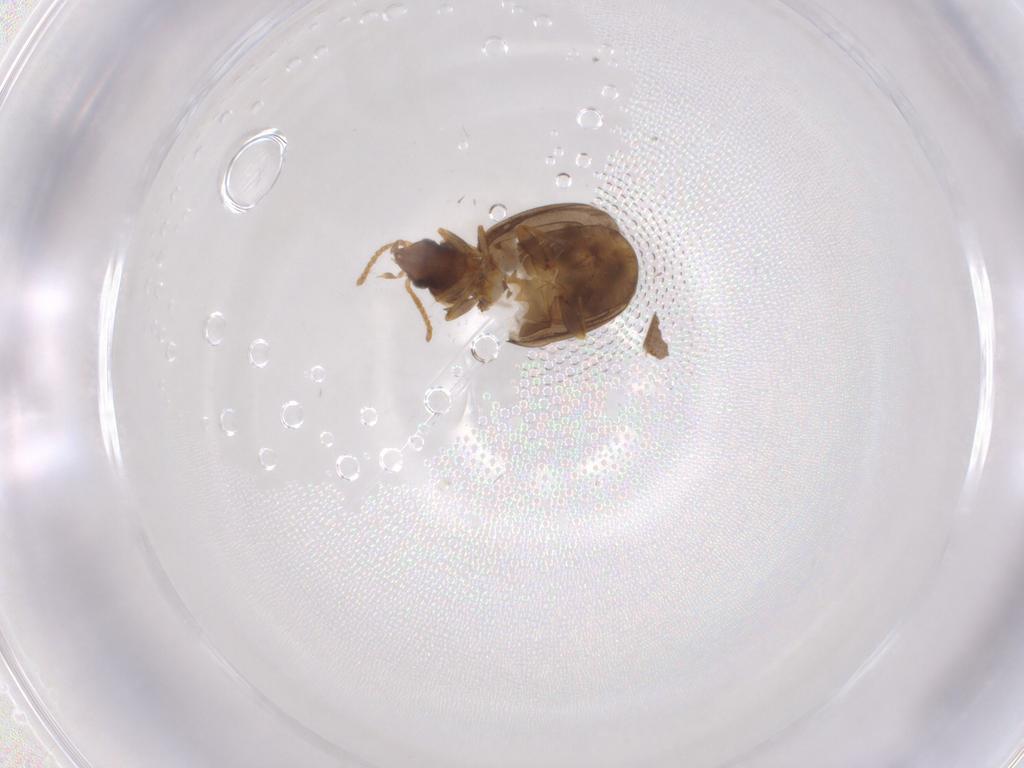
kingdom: Animalia
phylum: Arthropoda
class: Insecta
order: Coleoptera
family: Carabidae
